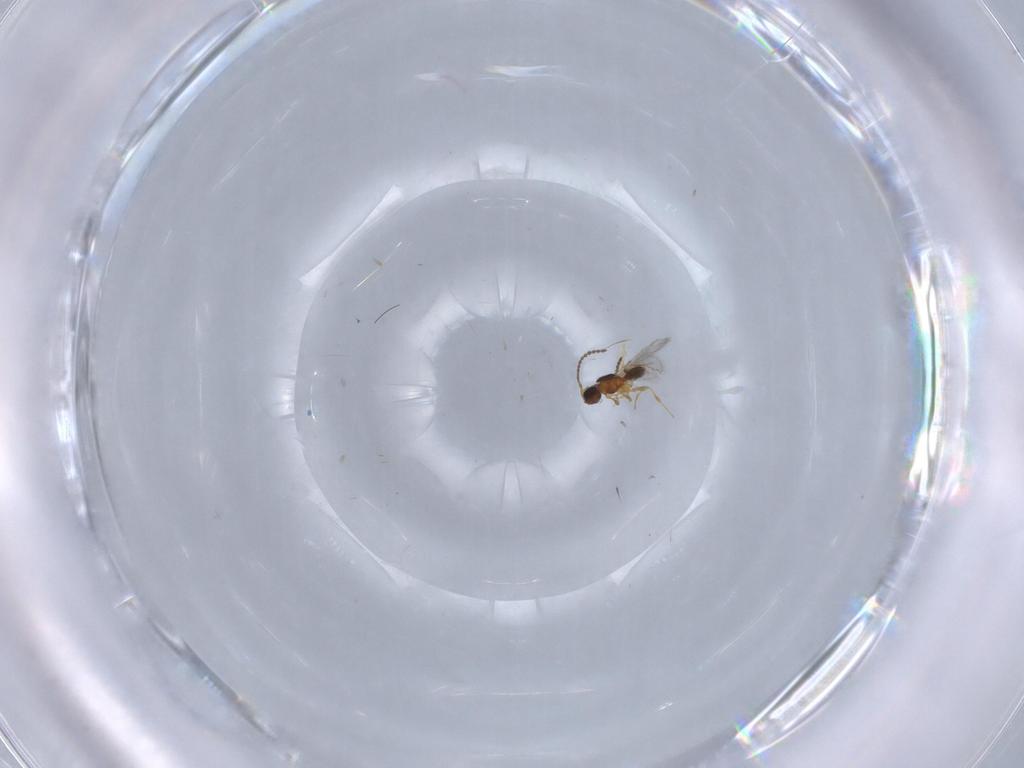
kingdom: Animalia
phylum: Arthropoda
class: Insecta
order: Hymenoptera
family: Diapriidae
